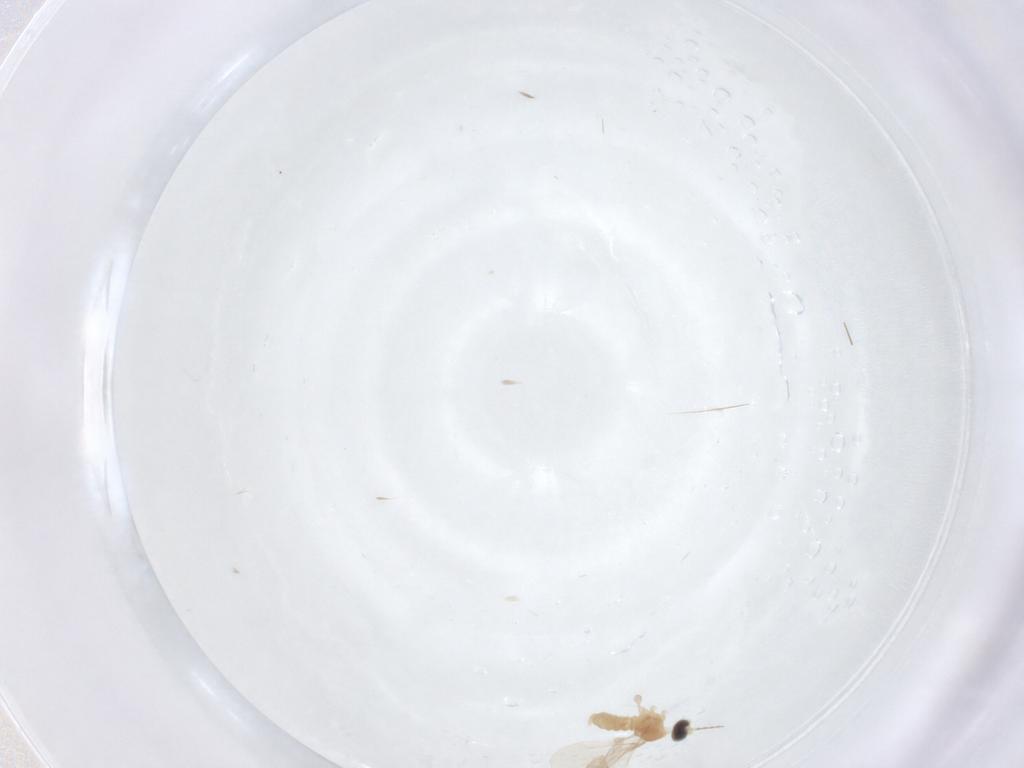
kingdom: Animalia
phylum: Arthropoda
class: Insecta
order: Diptera
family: Cecidomyiidae
